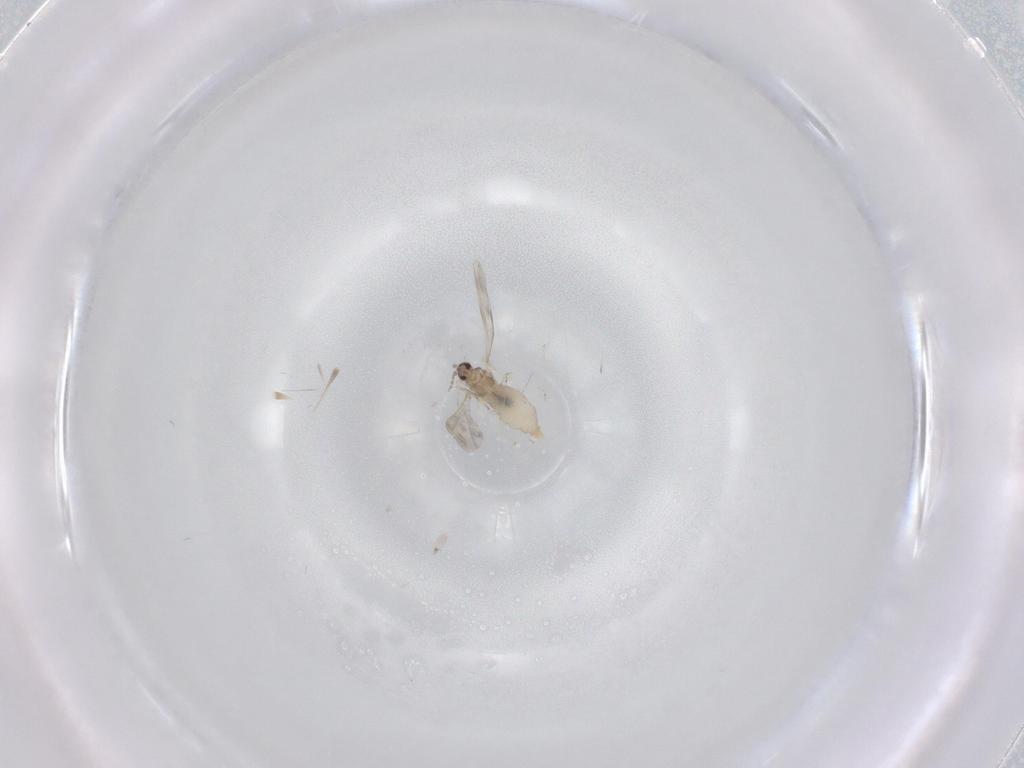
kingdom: Animalia
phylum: Arthropoda
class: Insecta
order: Diptera
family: Cecidomyiidae
